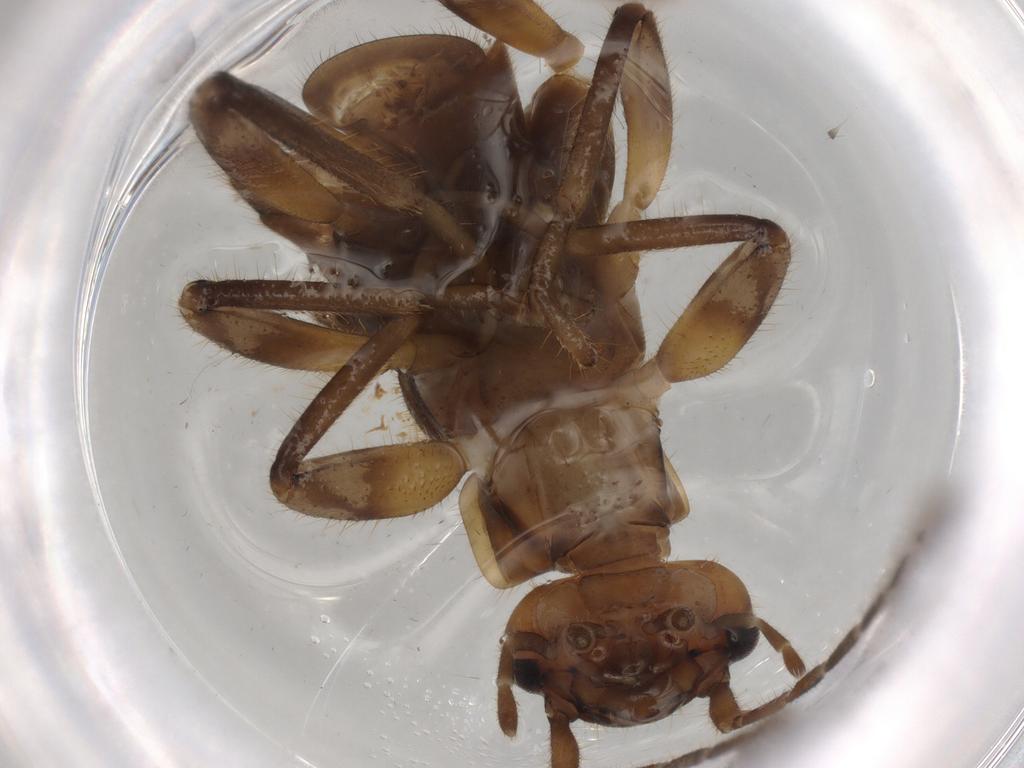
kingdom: Animalia
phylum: Arthropoda
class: Insecta
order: Dermaptera
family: Spongiphoridae
